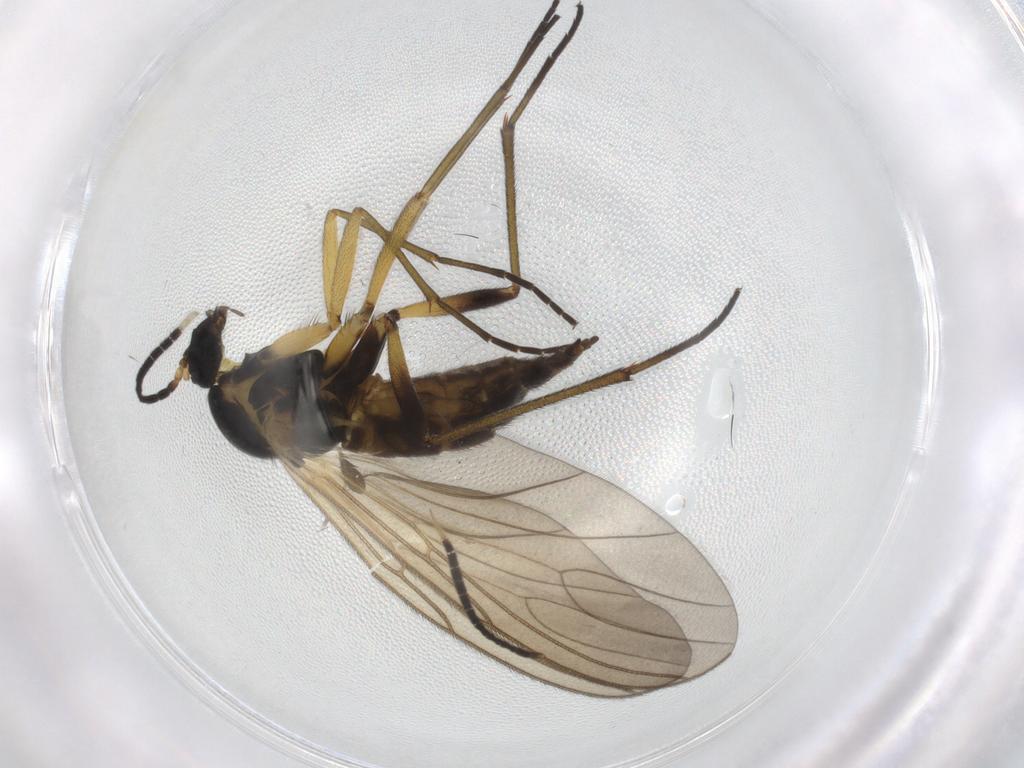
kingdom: Animalia
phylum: Arthropoda
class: Insecta
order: Diptera
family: Sciaridae
